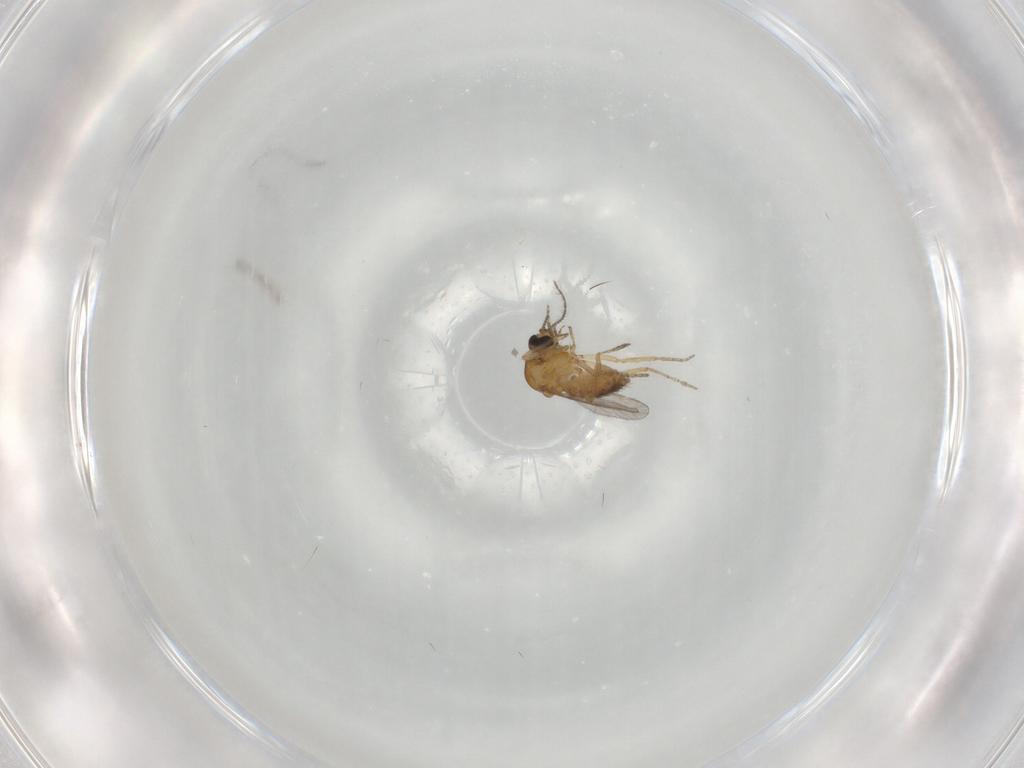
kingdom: Animalia
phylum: Arthropoda
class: Insecta
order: Diptera
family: Ceratopogonidae
